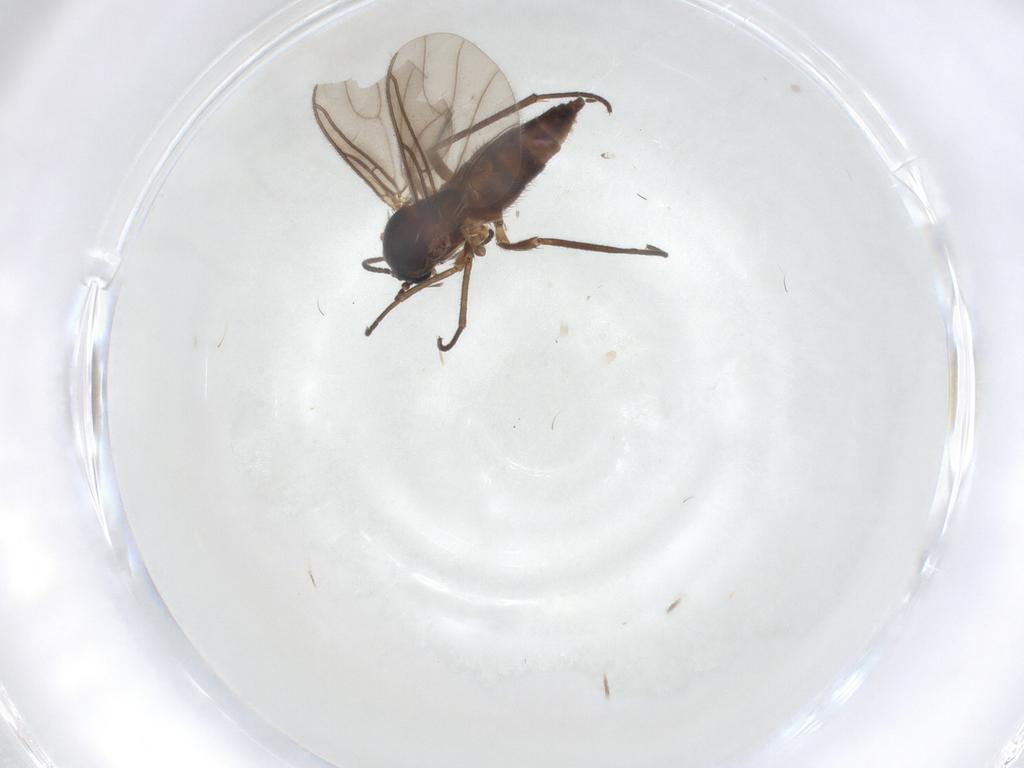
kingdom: Animalia
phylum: Arthropoda
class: Insecta
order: Diptera
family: Sciaridae
